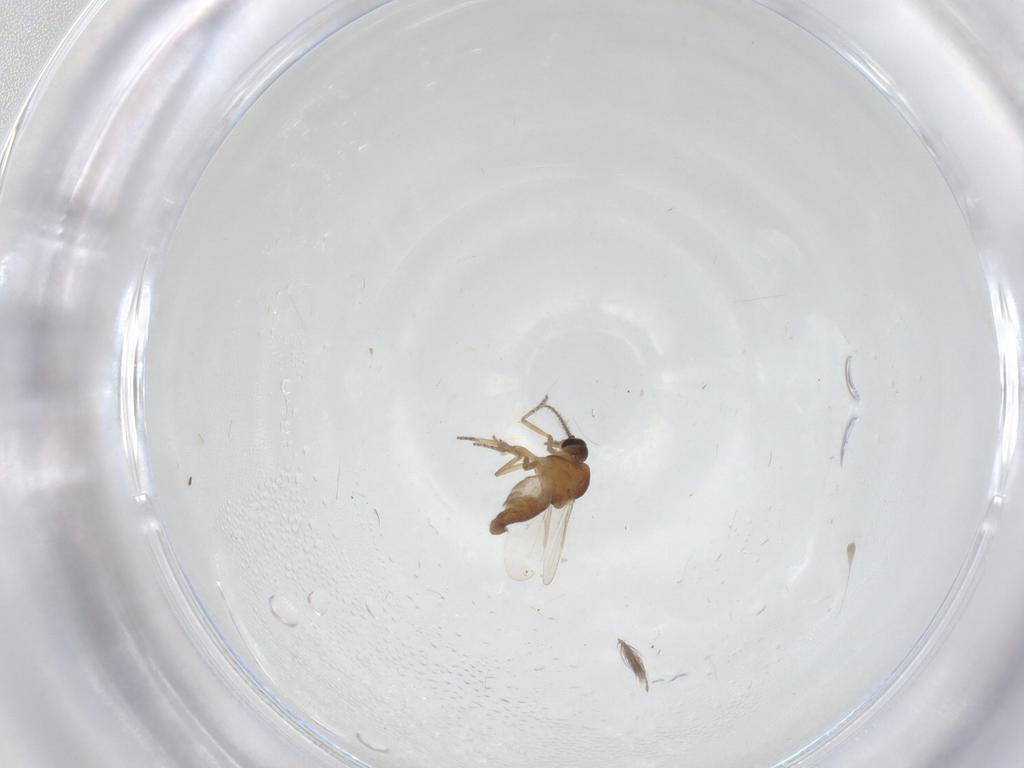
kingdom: Animalia
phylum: Arthropoda
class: Insecta
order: Diptera
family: Ceratopogonidae
